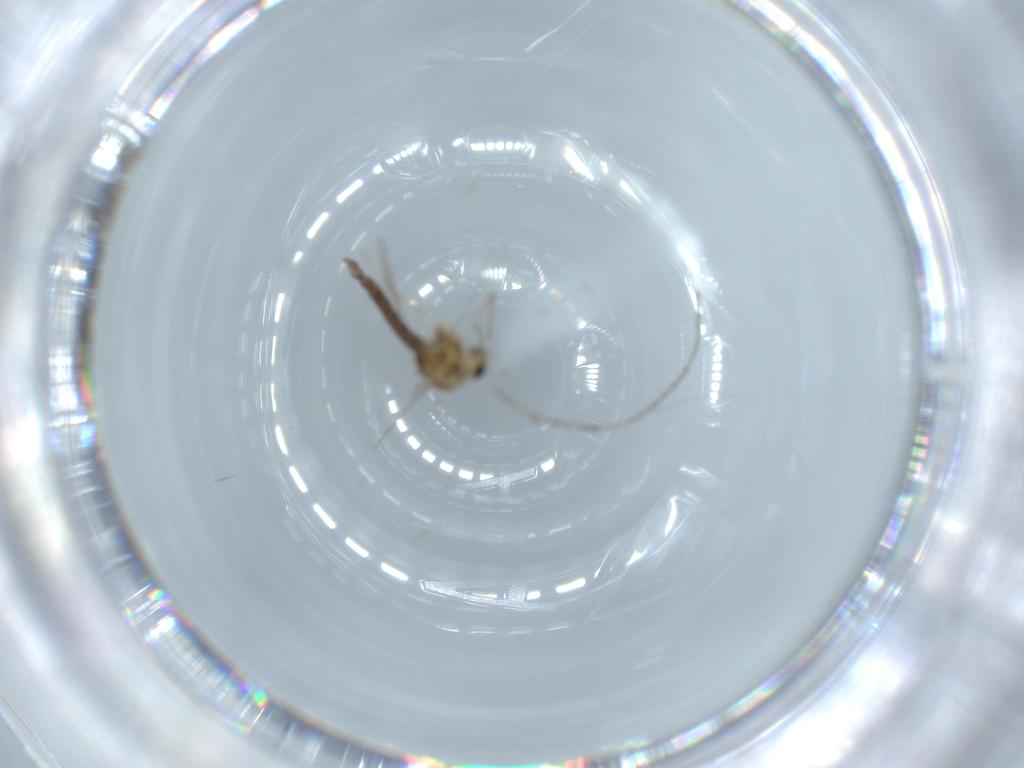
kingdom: Animalia
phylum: Arthropoda
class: Insecta
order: Diptera
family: Chironomidae
